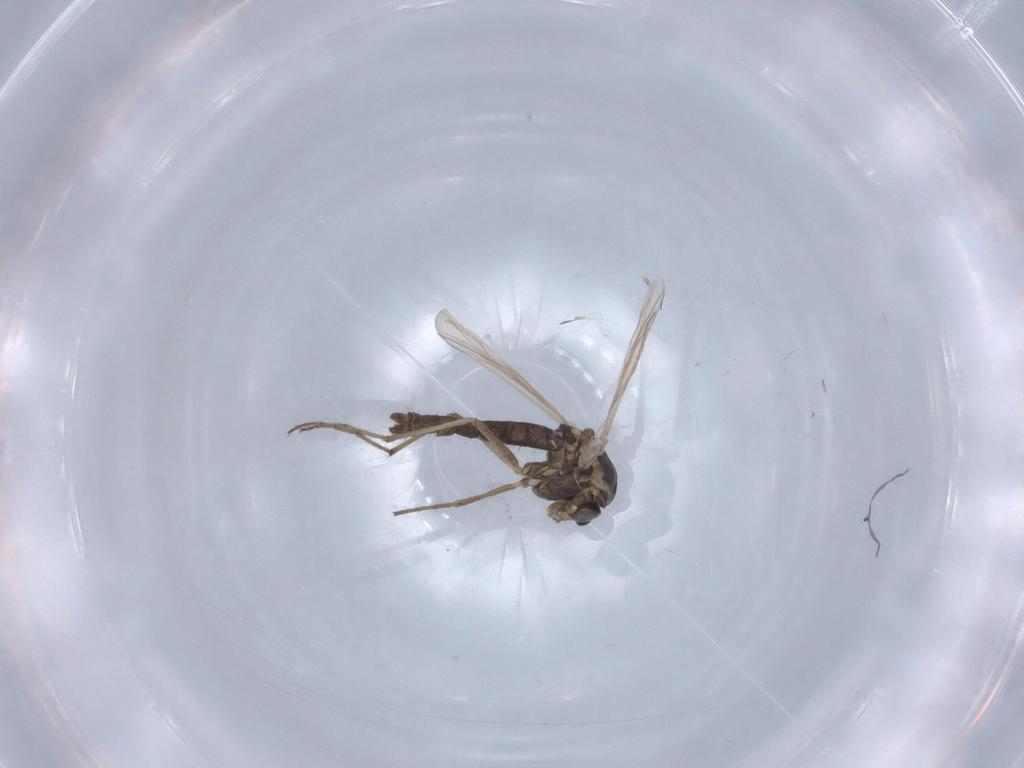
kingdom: Animalia
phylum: Arthropoda
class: Insecta
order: Diptera
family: Chironomidae
